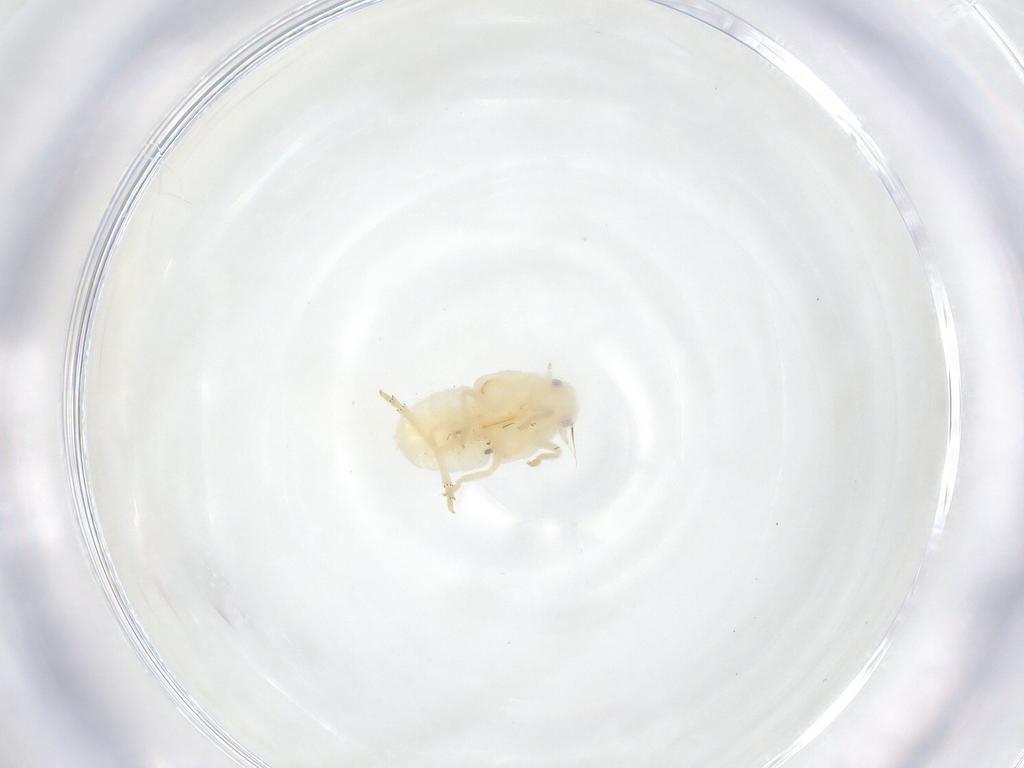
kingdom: Animalia
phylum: Arthropoda
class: Insecta
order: Hemiptera
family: Flatidae
